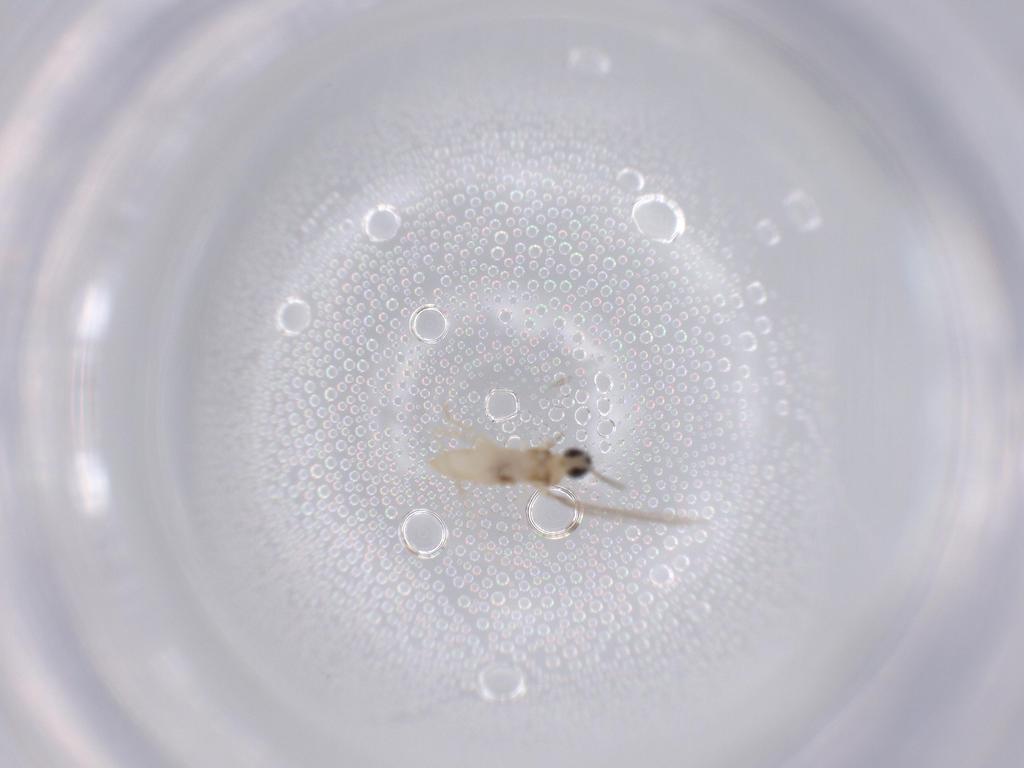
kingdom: Animalia
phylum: Arthropoda
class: Insecta
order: Diptera
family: Cecidomyiidae
